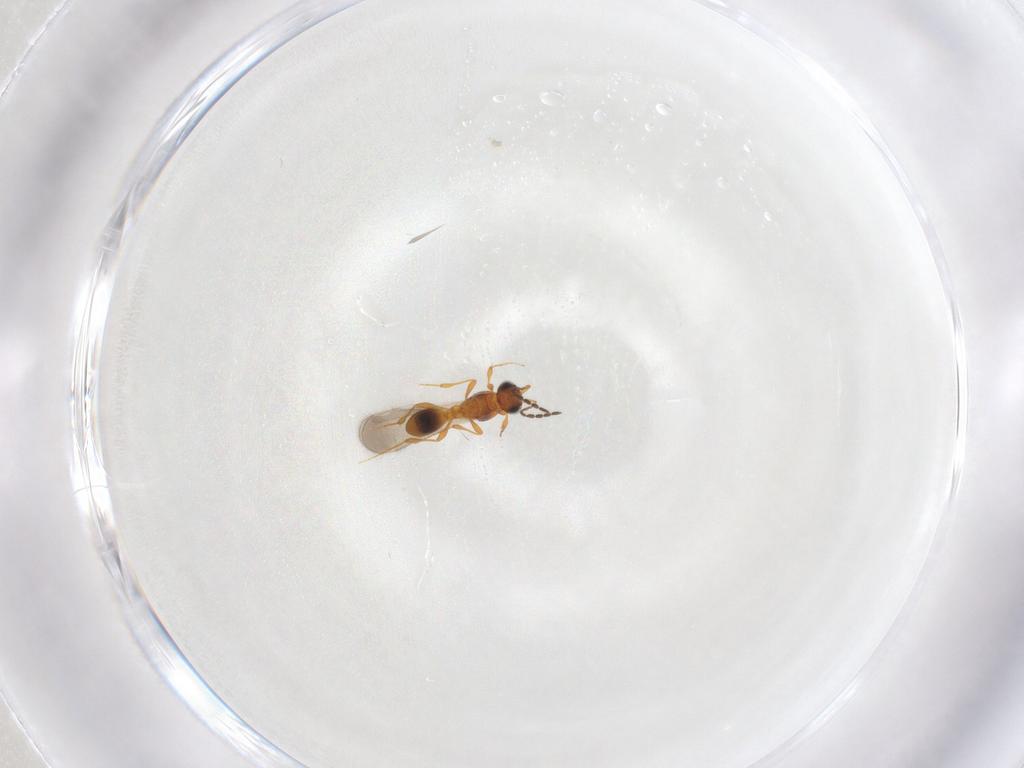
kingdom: Animalia
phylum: Arthropoda
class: Insecta
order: Hymenoptera
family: Platygastridae
